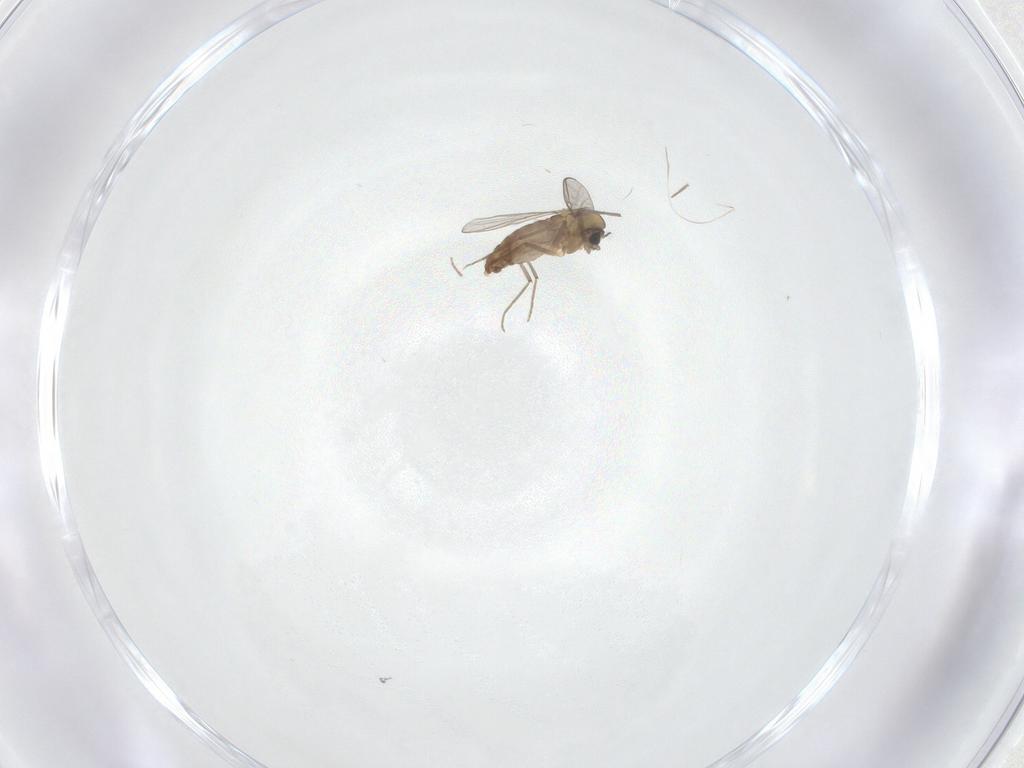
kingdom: Animalia
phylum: Arthropoda
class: Insecta
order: Diptera
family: Chironomidae
